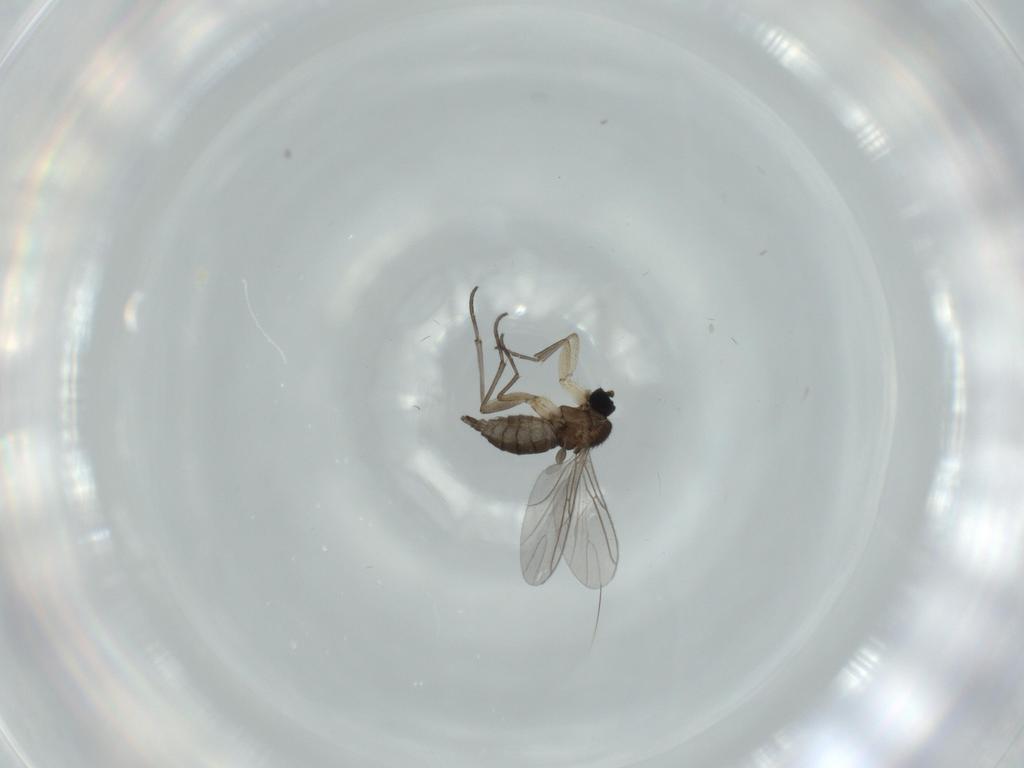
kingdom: Animalia
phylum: Arthropoda
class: Insecta
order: Diptera
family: Sciaridae
